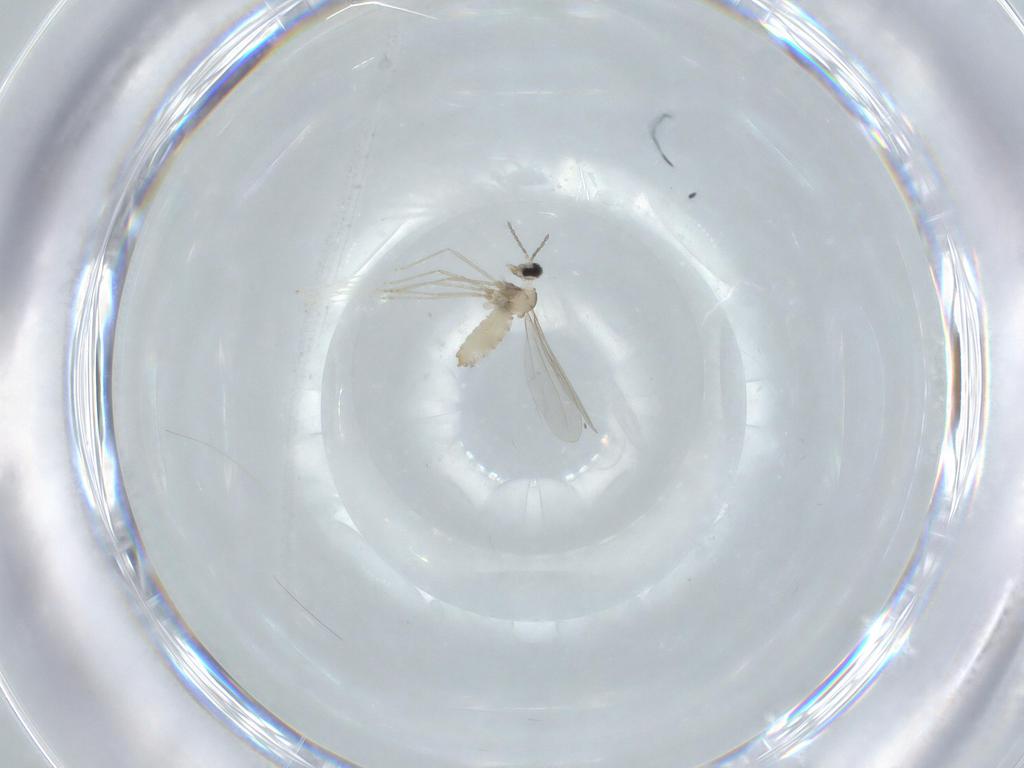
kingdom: Animalia
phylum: Arthropoda
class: Insecta
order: Diptera
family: Cecidomyiidae
